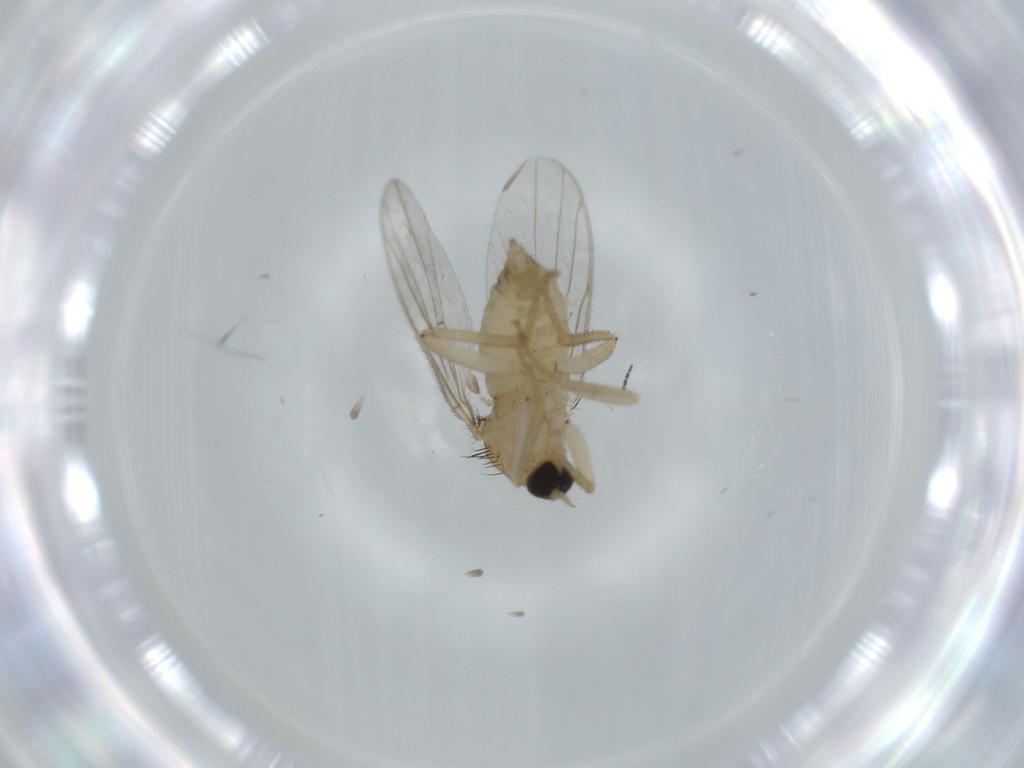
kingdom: Animalia
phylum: Arthropoda
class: Insecta
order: Diptera
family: Hybotidae
